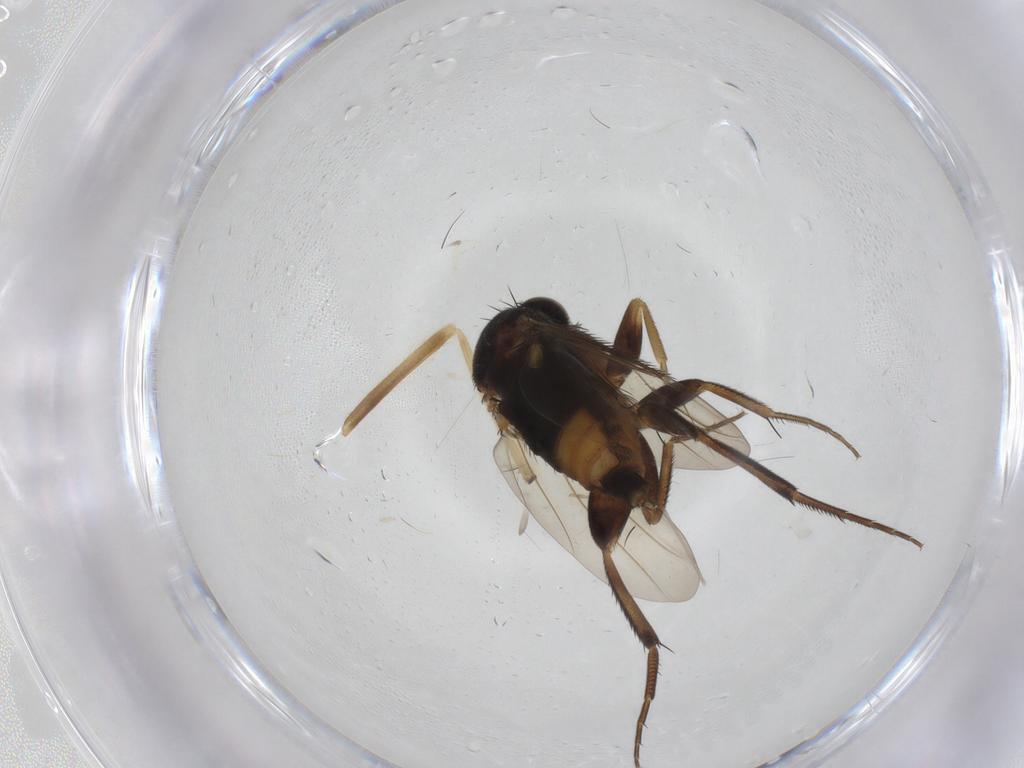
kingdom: Animalia
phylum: Arthropoda
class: Insecta
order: Diptera
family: Phoridae
